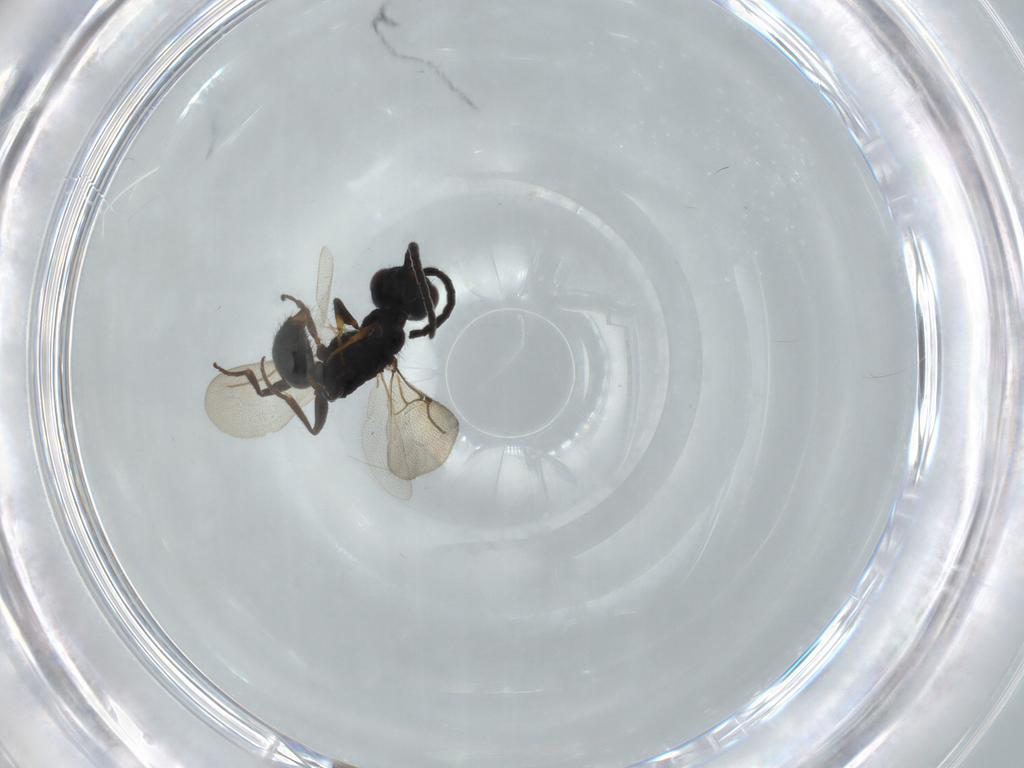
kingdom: Animalia
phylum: Arthropoda
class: Insecta
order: Hymenoptera
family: Bethylidae
